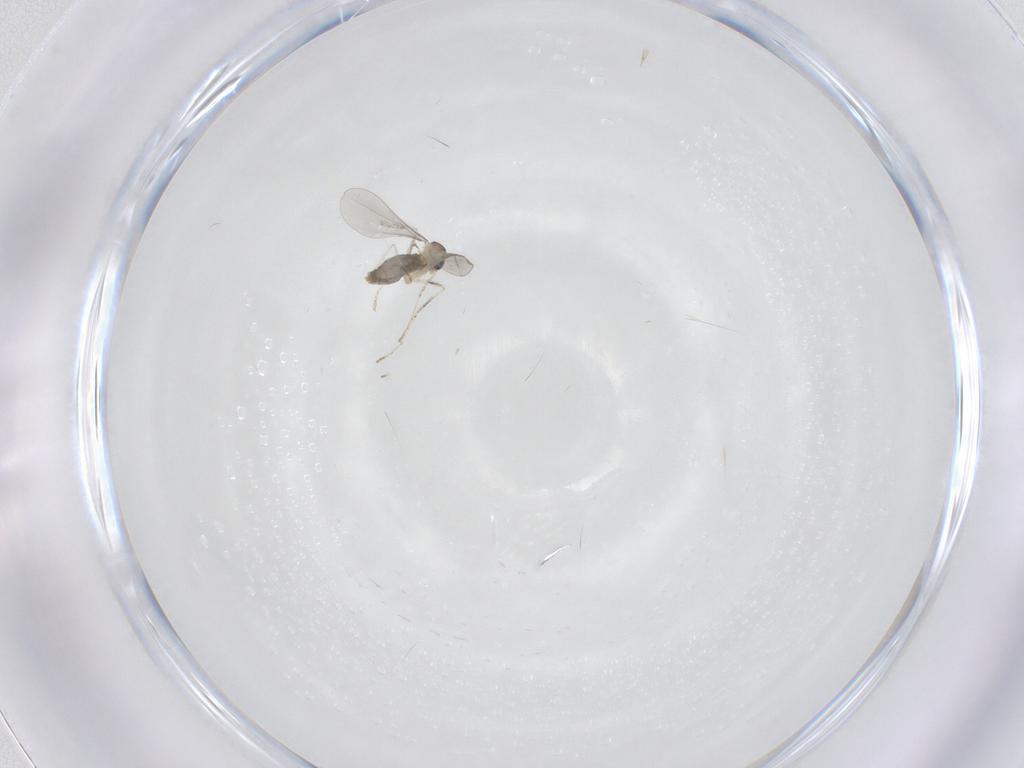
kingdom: Animalia
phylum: Arthropoda
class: Insecta
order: Diptera
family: Cecidomyiidae
